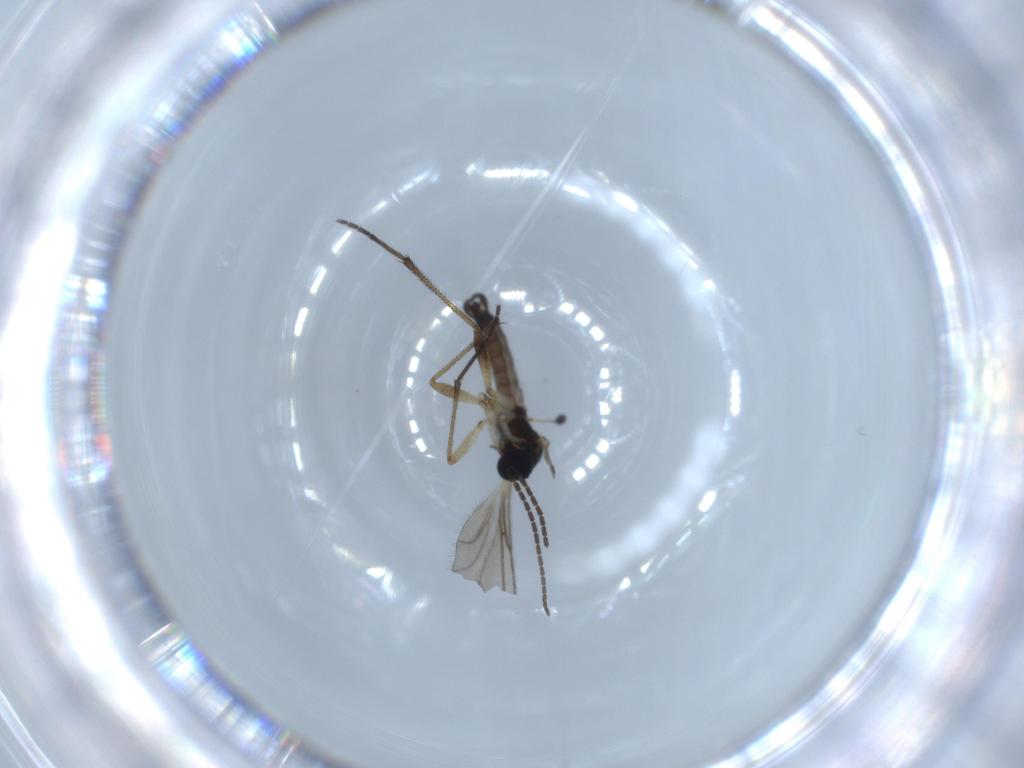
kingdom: Animalia
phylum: Arthropoda
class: Insecta
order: Diptera
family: Sciaridae
